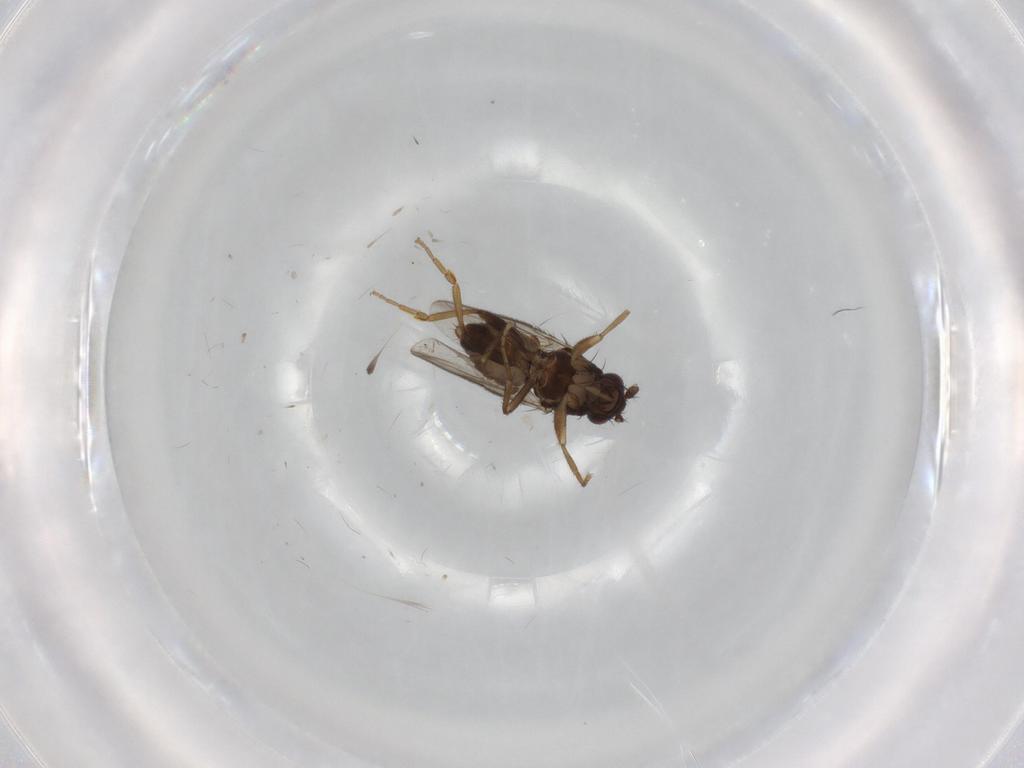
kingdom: Animalia
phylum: Arthropoda
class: Insecta
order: Diptera
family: Sphaeroceridae
